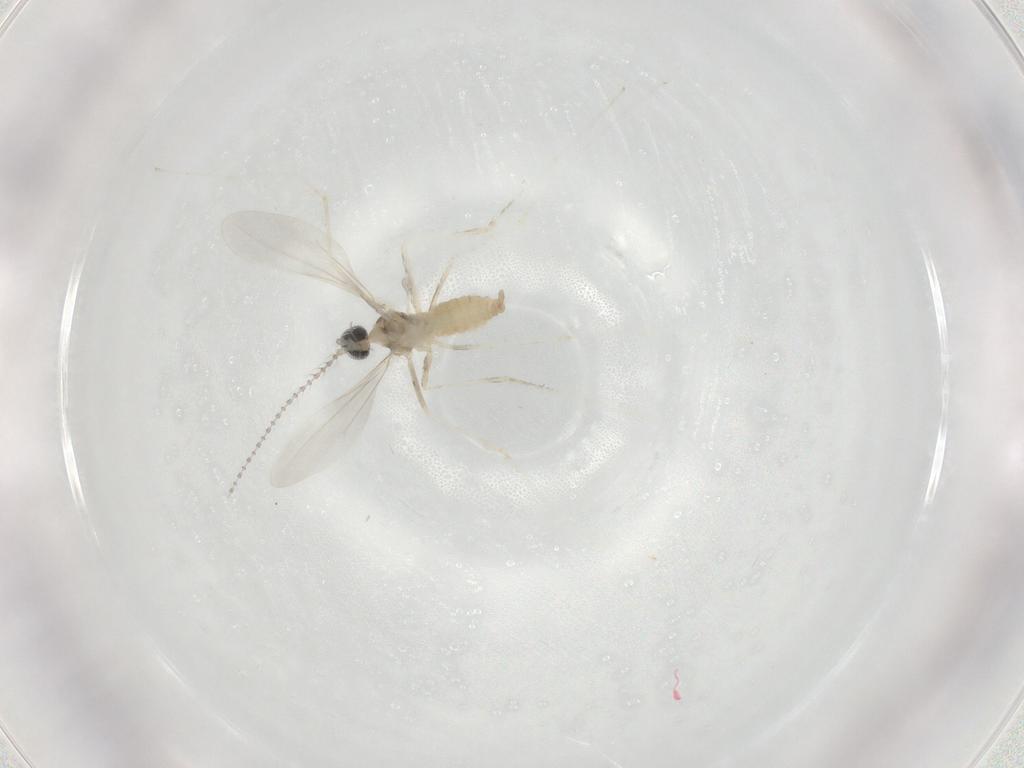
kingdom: Animalia
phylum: Arthropoda
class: Insecta
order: Diptera
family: Cecidomyiidae
